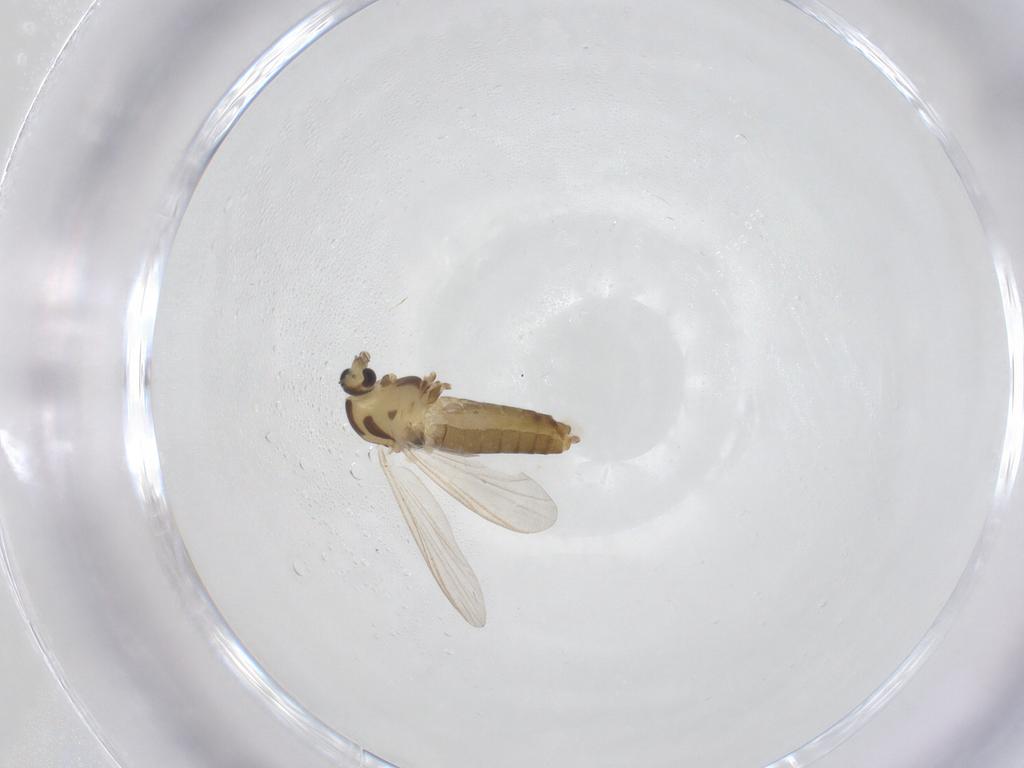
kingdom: Animalia
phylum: Arthropoda
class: Insecta
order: Diptera
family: Chironomidae
